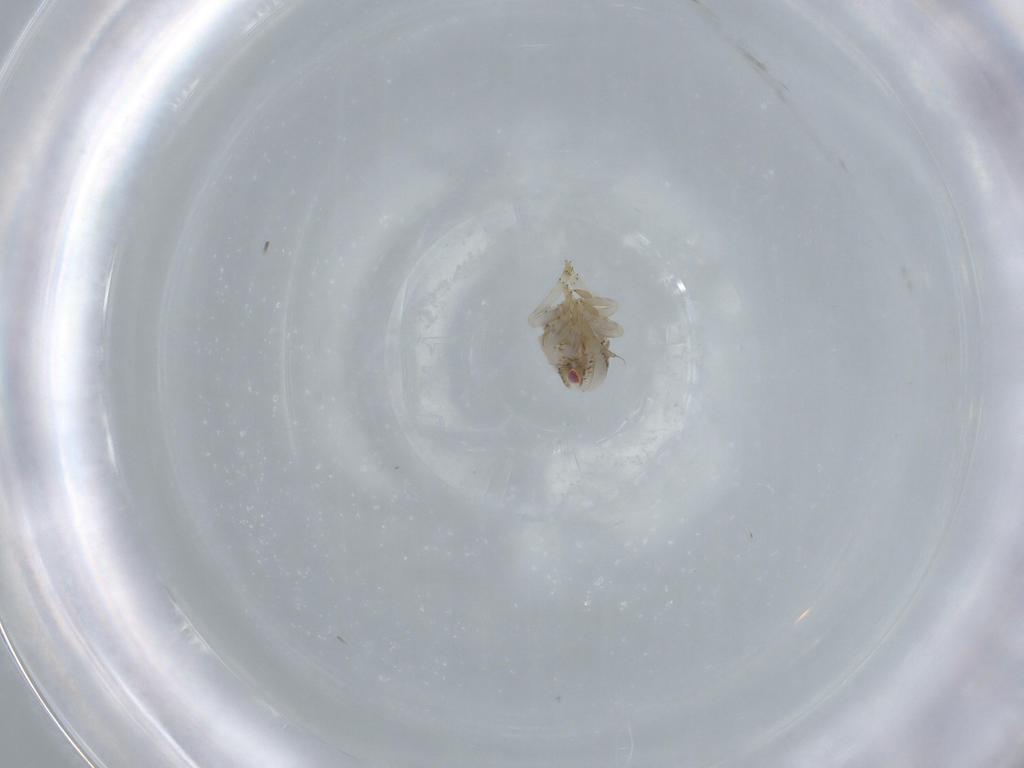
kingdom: Animalia
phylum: Arthropoda
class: Insecta
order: Hemiptera
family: Acanaloniidae
